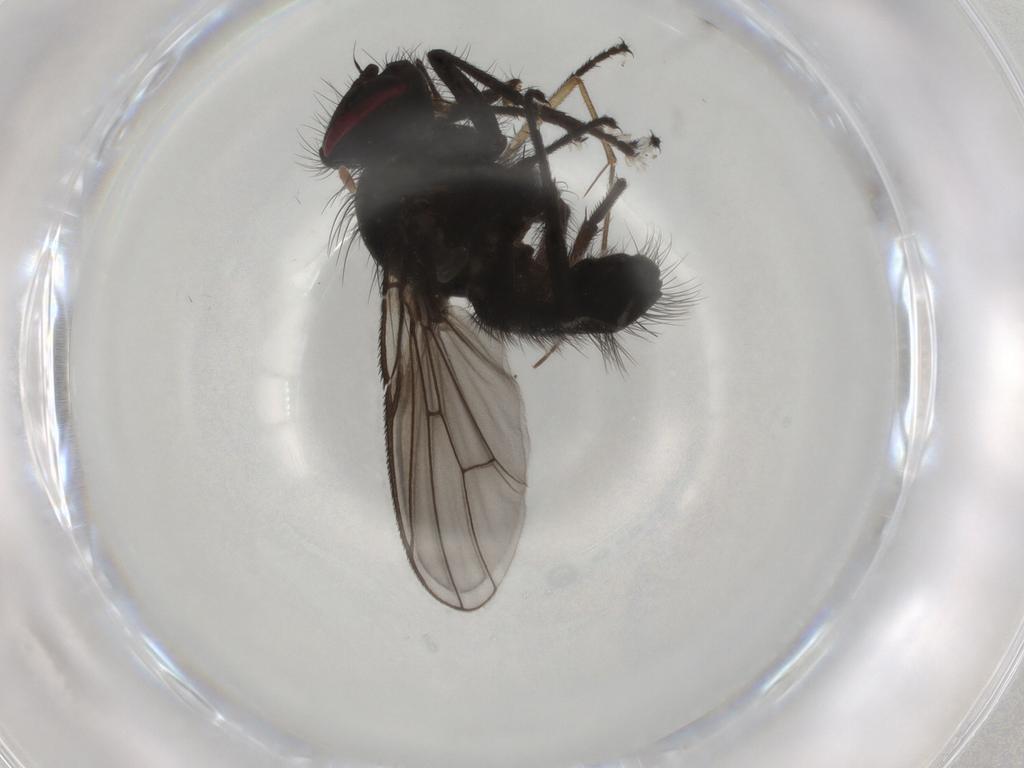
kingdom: Animalia
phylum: Arthropoda
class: Insecta
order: Diptera
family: Muscidae
